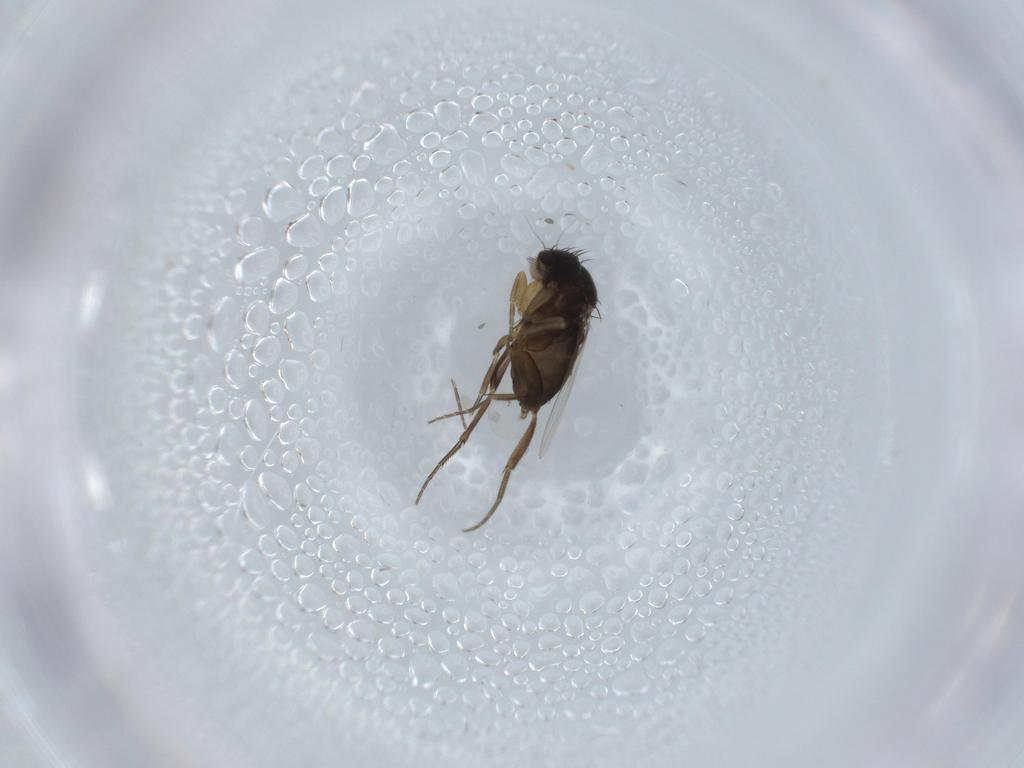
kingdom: Animalia
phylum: Arthropoda
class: Insecta
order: Diptera
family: Phoridae
